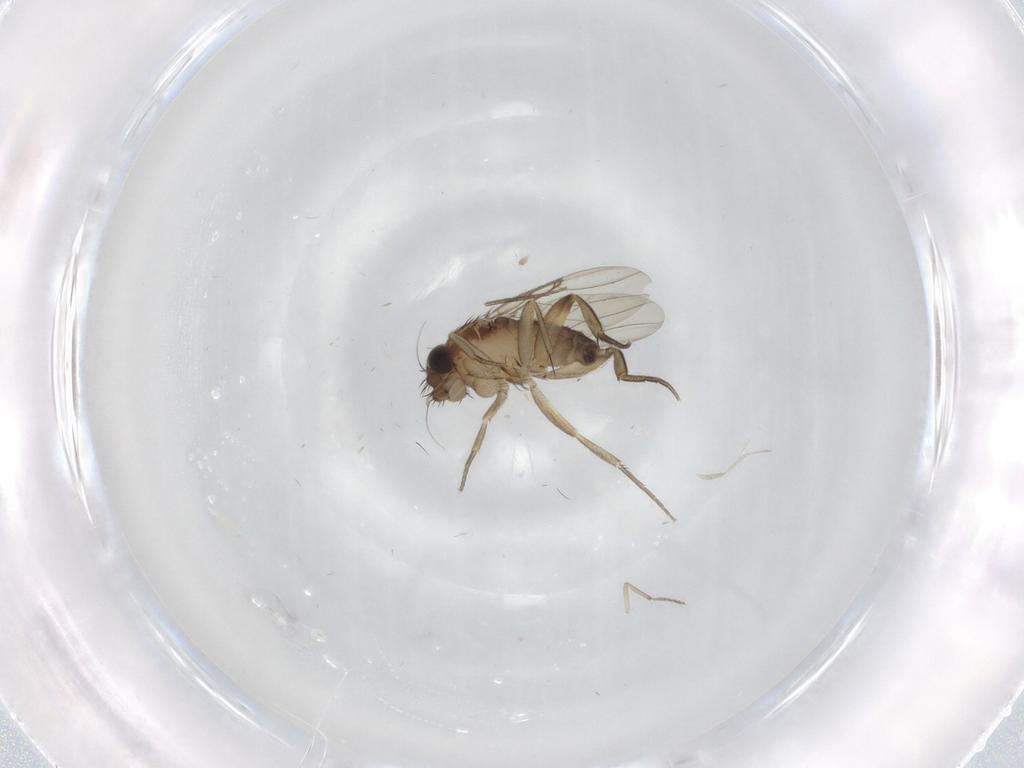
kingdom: Animalia
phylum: Arthropoda
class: Insecta
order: Diptera
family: Phoridae
